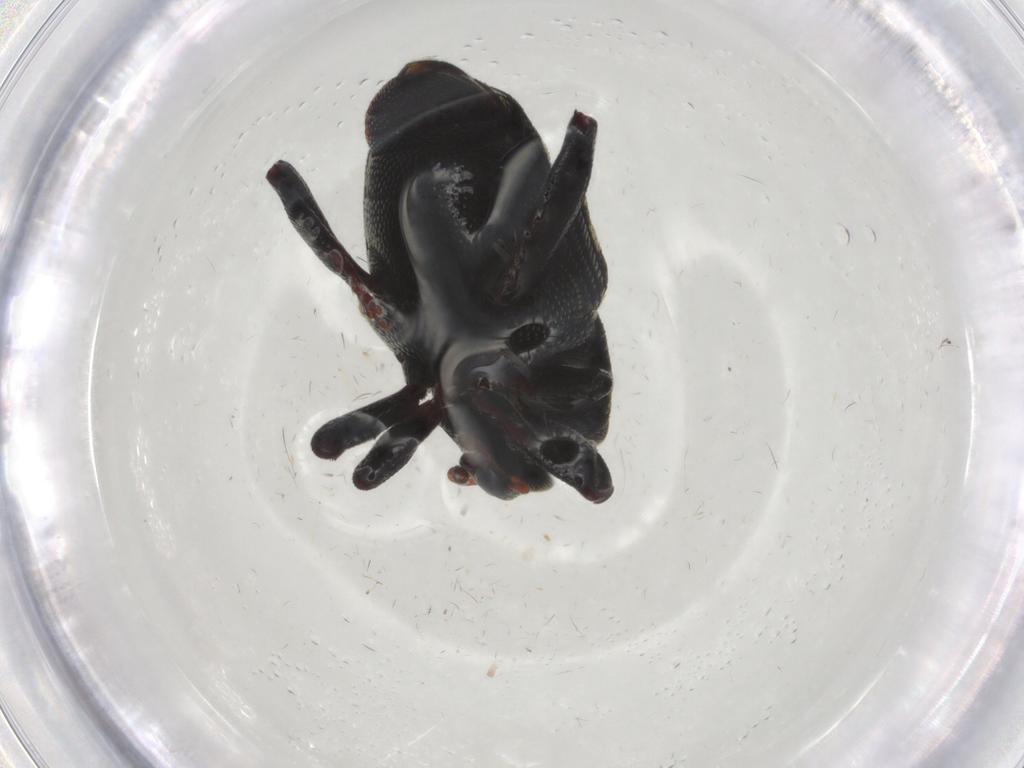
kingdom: Animalia
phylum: Arthropoda
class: Insecta
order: Coleoptera
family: Curculionidae
